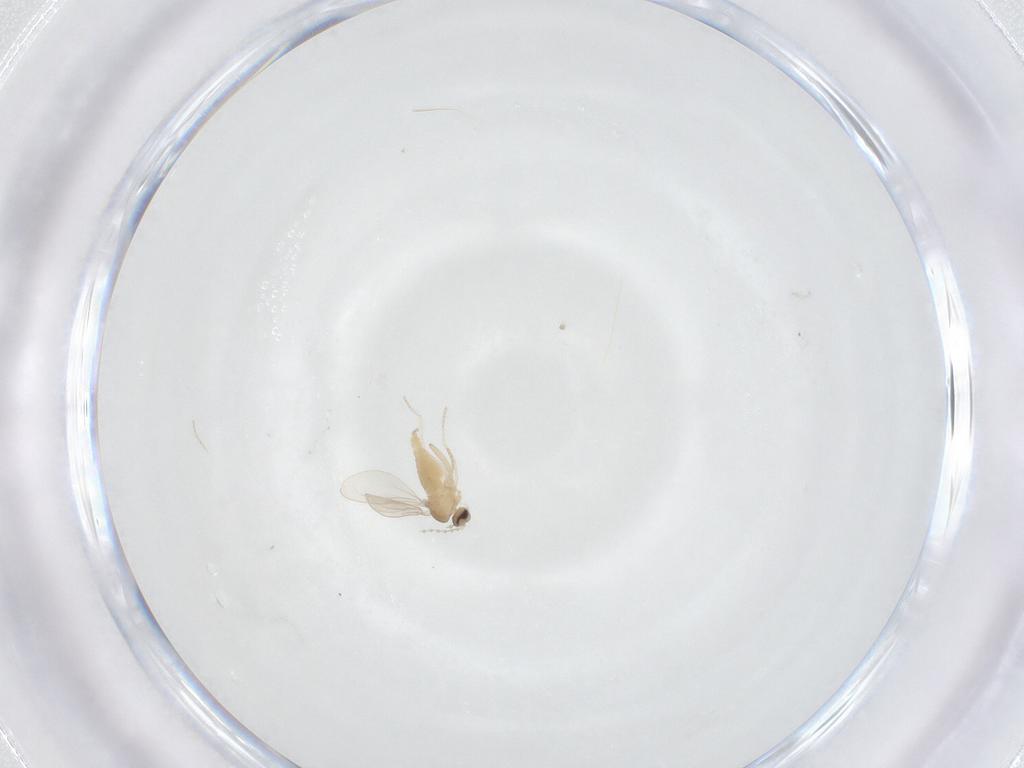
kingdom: Animalia
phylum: Arthropoda
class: Insecta
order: Diptera
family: Cecidomyiidae
